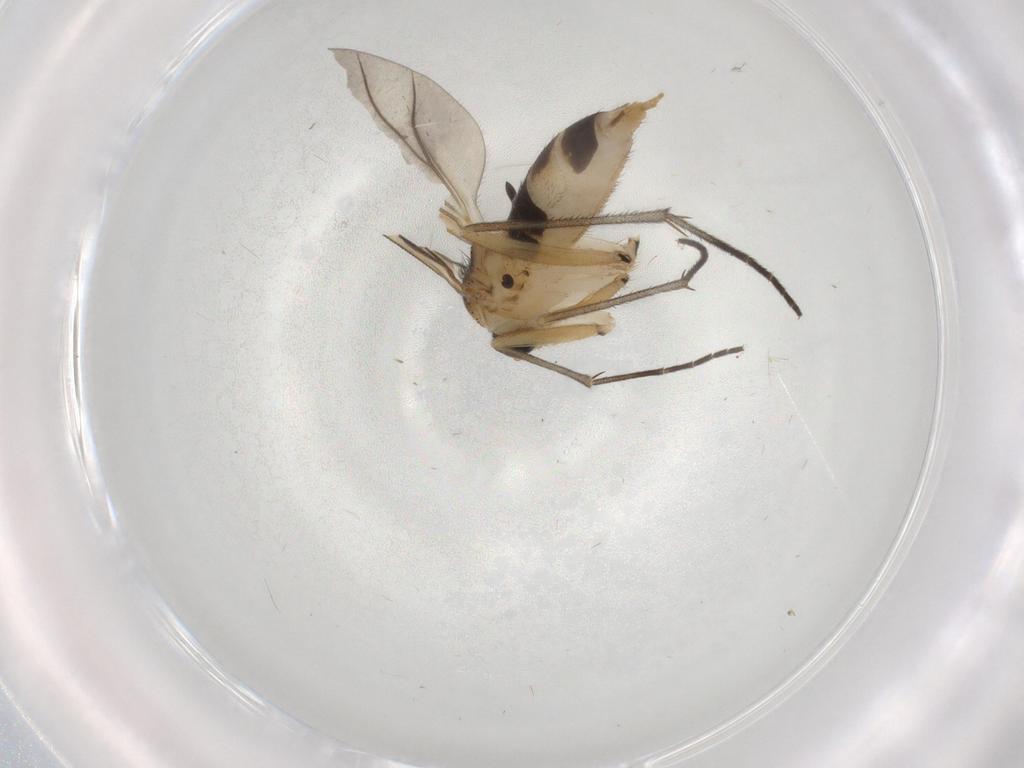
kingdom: Animalia
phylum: Arthropoda
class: Insecta
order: Diptera
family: Sciaridae
